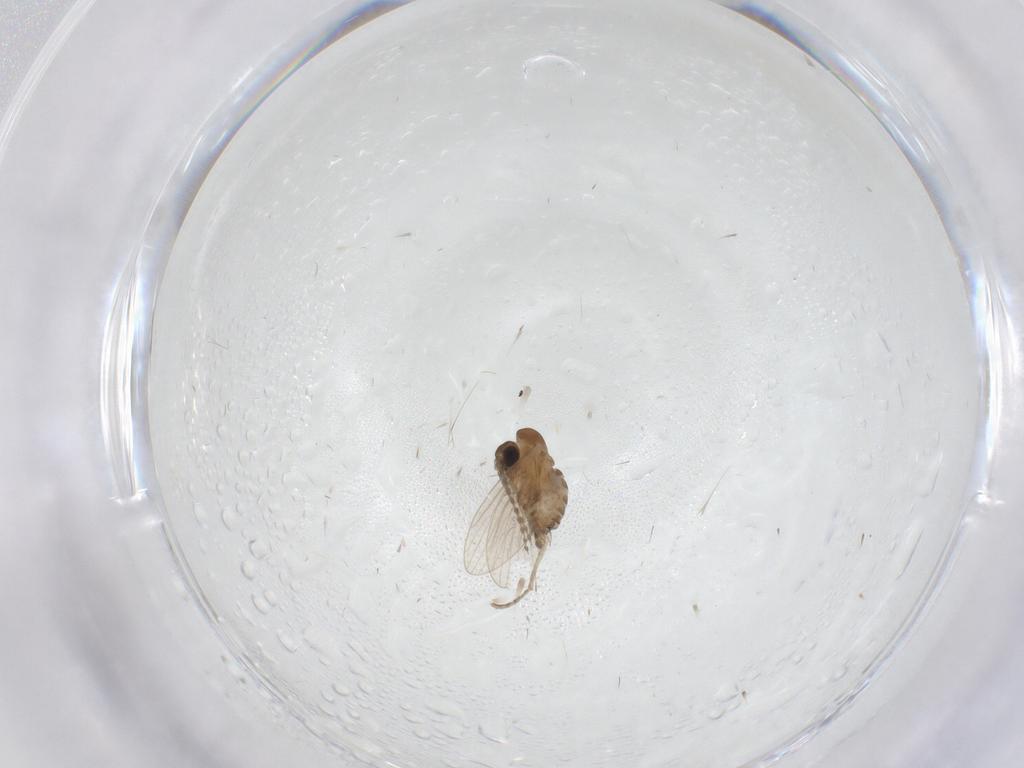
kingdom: Animalia
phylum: Arthropoda
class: Insecta
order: Diptera
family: Psychodidae
